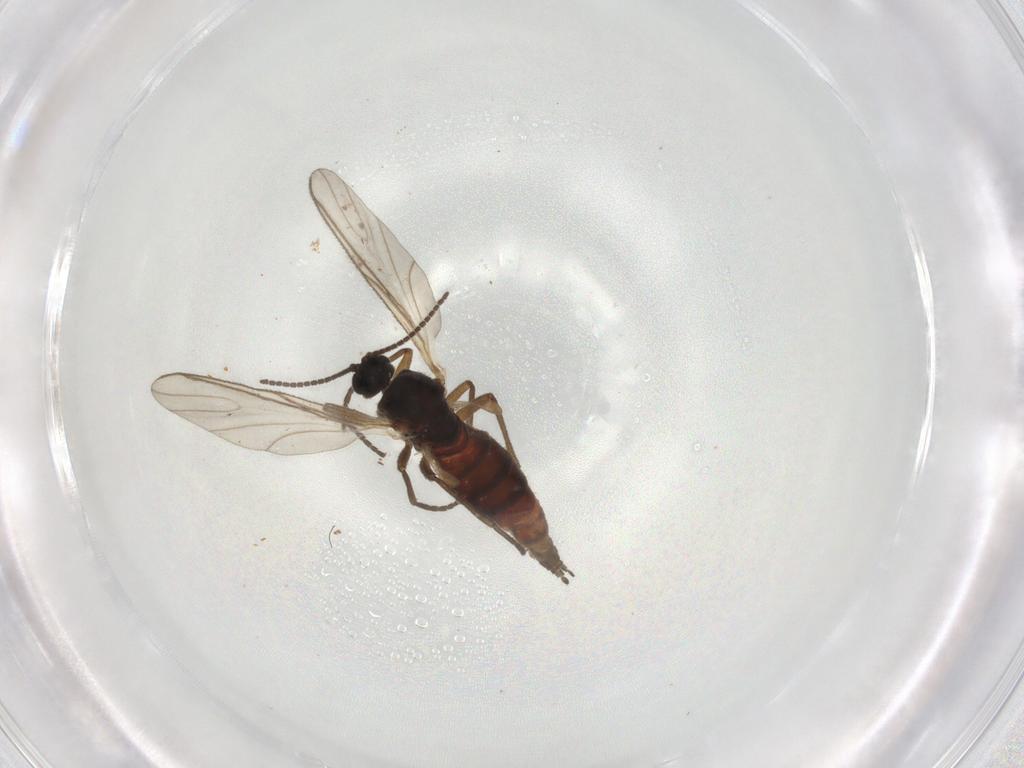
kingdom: Animalia
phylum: Arthropoda
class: Insecta
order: Diptera
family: Sciaridae
